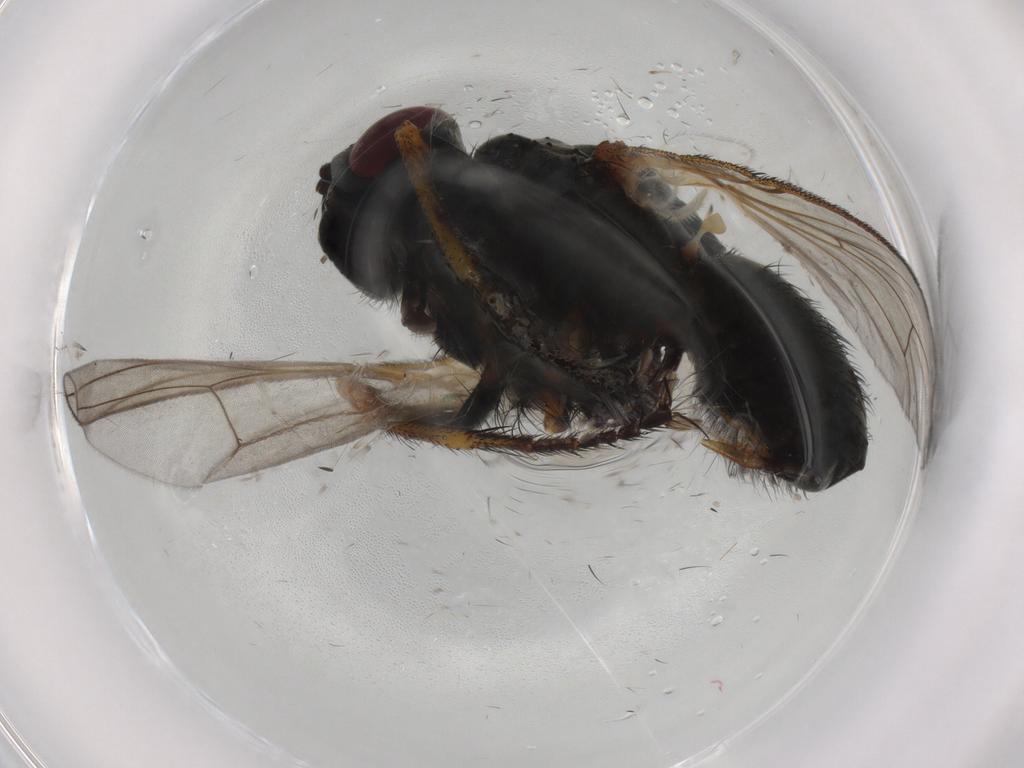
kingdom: Animalia
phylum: Arthropoda
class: Insecta
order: Diptera
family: Muscidae
